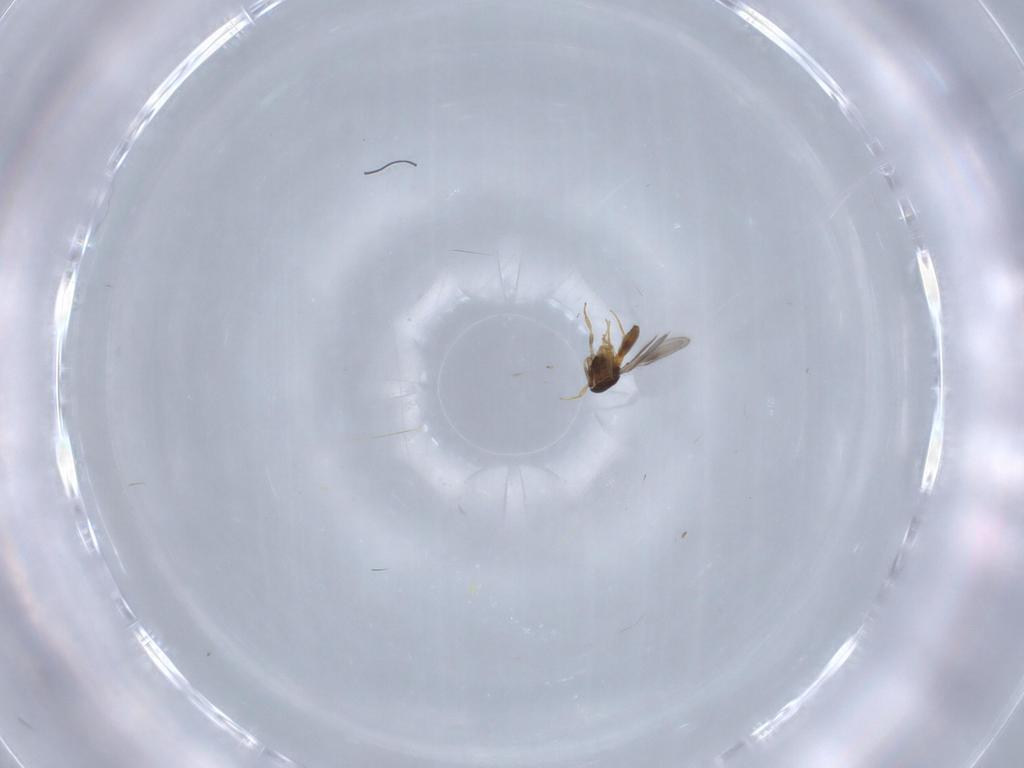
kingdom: Animalia
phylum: Arthropoda
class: Insecta
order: Hymenoptera
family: Scelionidae
